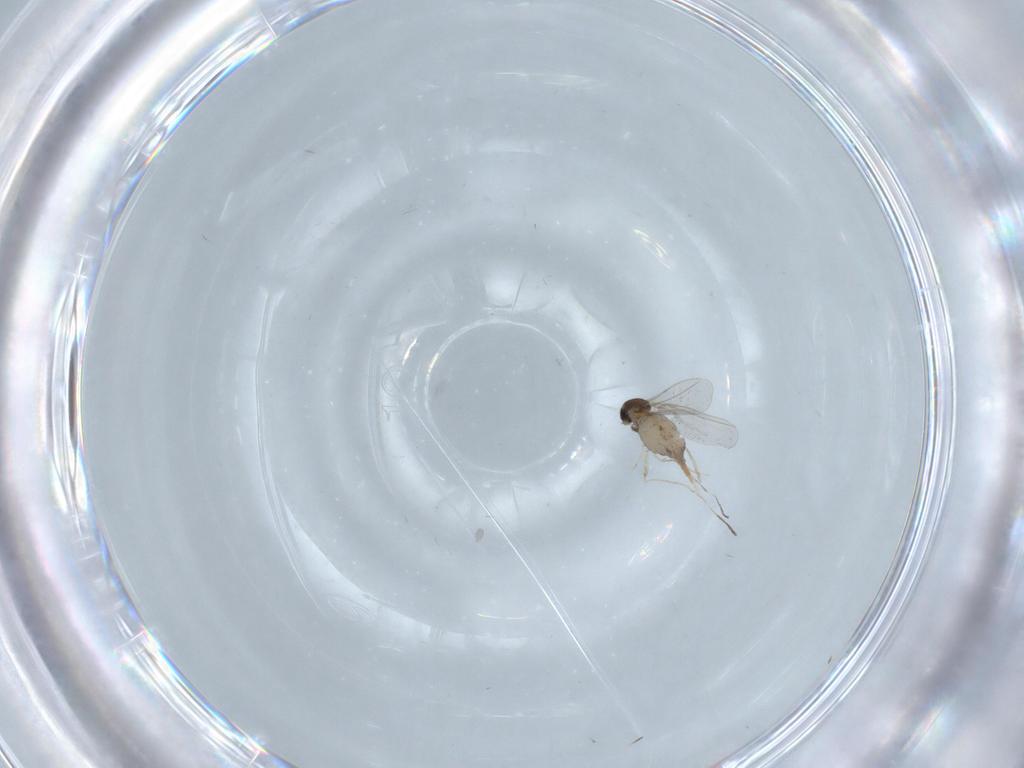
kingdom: Animalia
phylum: Arthropoda
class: Insecta
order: Diptera
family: Cecidomyiidae
